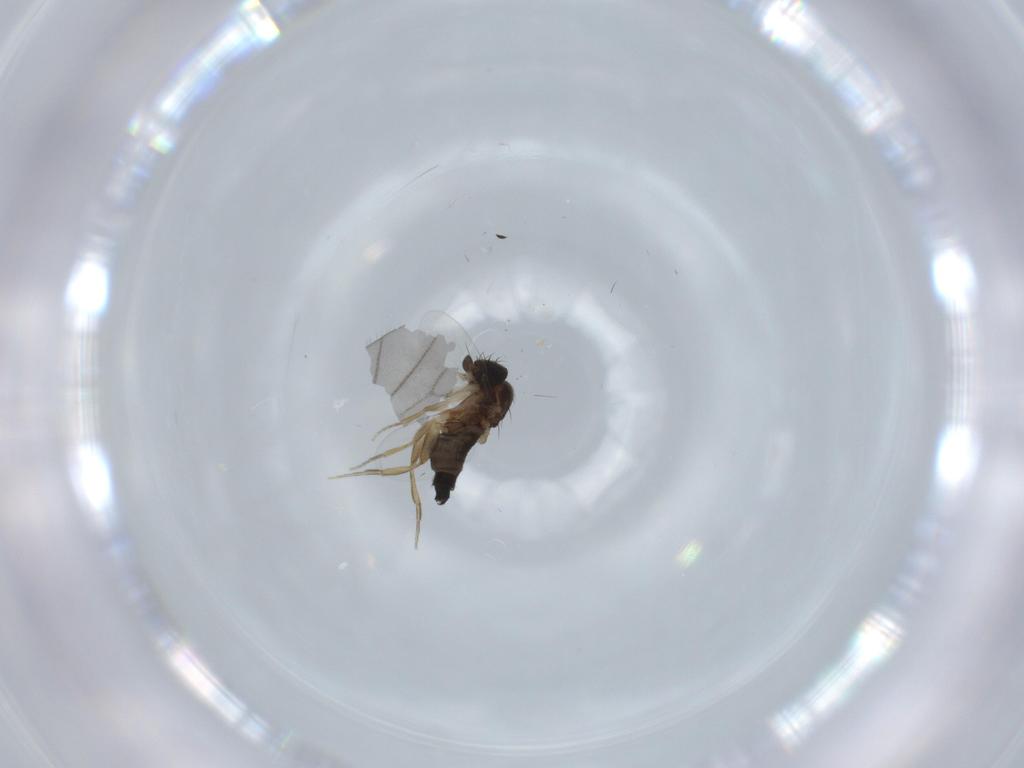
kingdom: Animalia
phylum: Arthropoda
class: Insecta
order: Diptera
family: Phoridae
